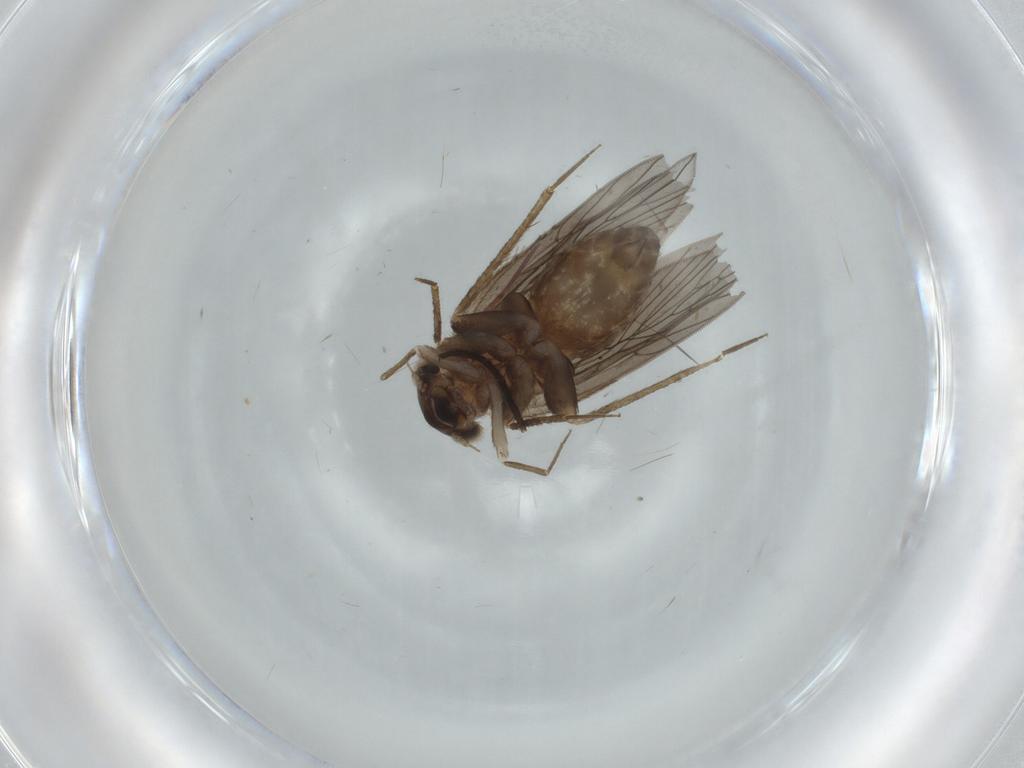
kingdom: Animalia
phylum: Arthropoda
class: Insecta
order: Psocodea
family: Lepidopsocidae
